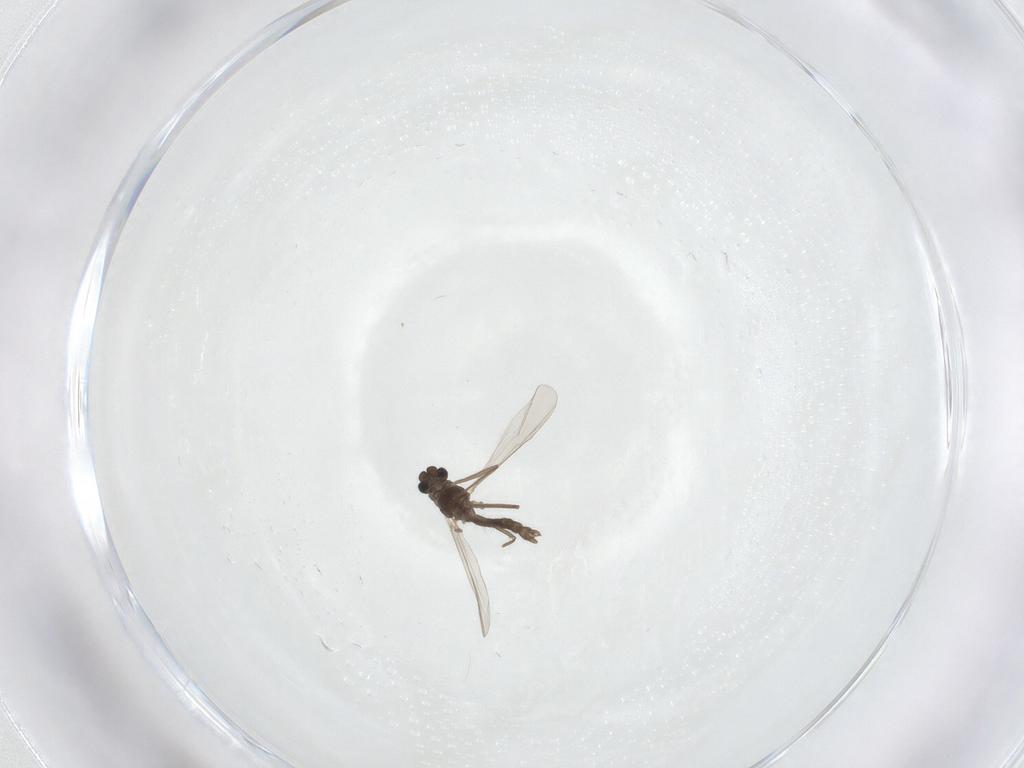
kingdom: Animalia
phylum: Arthropoda
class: Insecta
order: Diptera
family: Chironomidae
